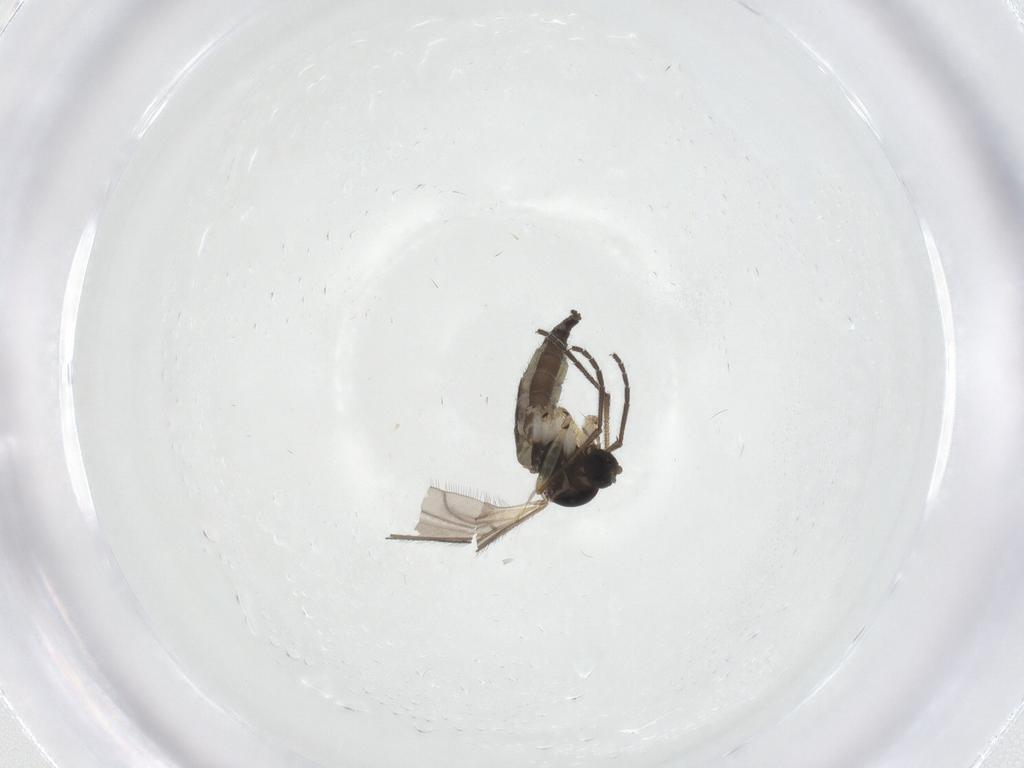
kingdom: Animalia
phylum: Arthropoda
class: Insecta
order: Diptera
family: Sciaridae
